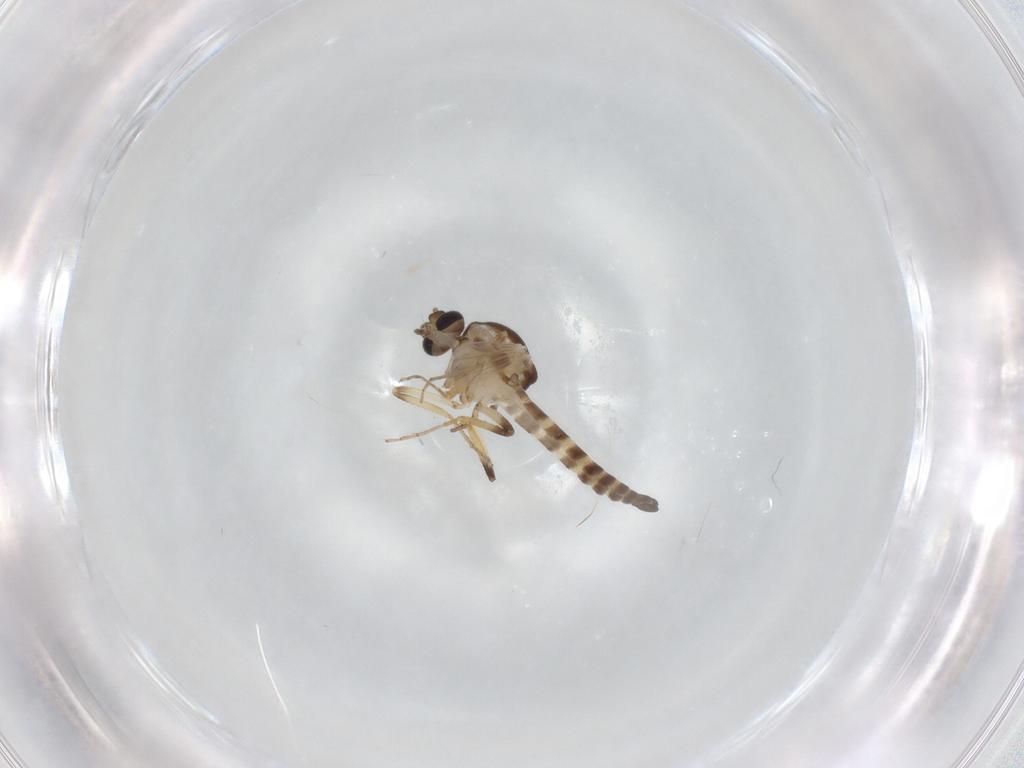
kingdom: Animalia
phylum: Arthropoda
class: Insecta
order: Diptera
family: Ceratopogonidae
